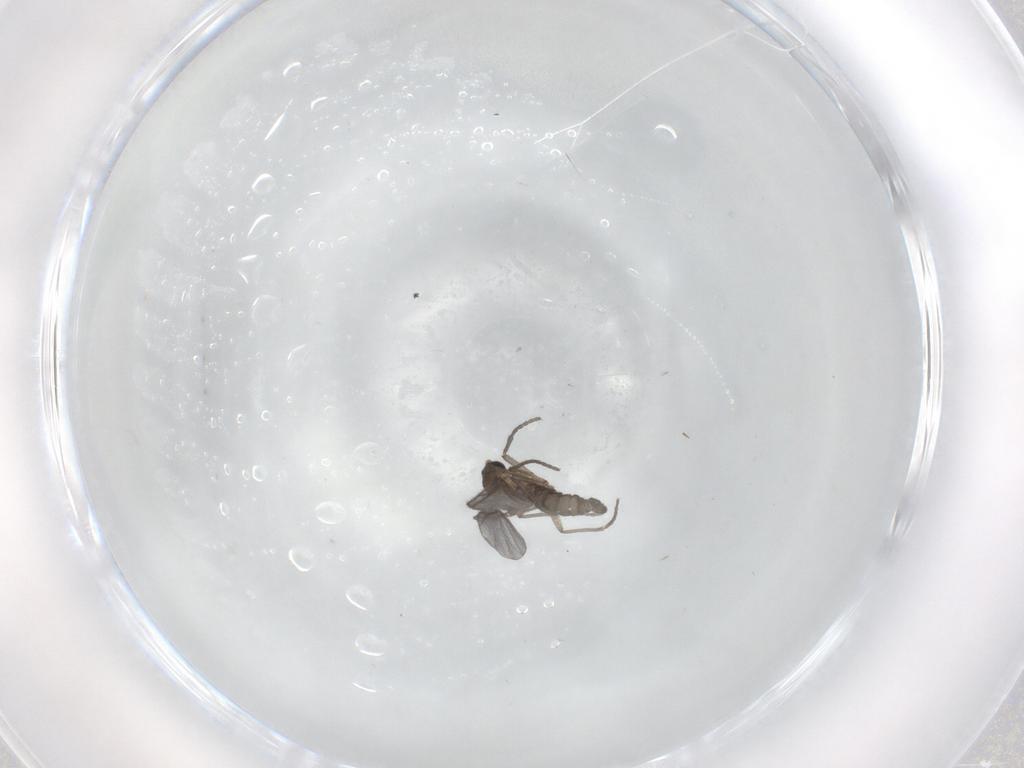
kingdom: Animalia
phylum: Arthropoda
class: Insecta
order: Diptera
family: Sciaridae
